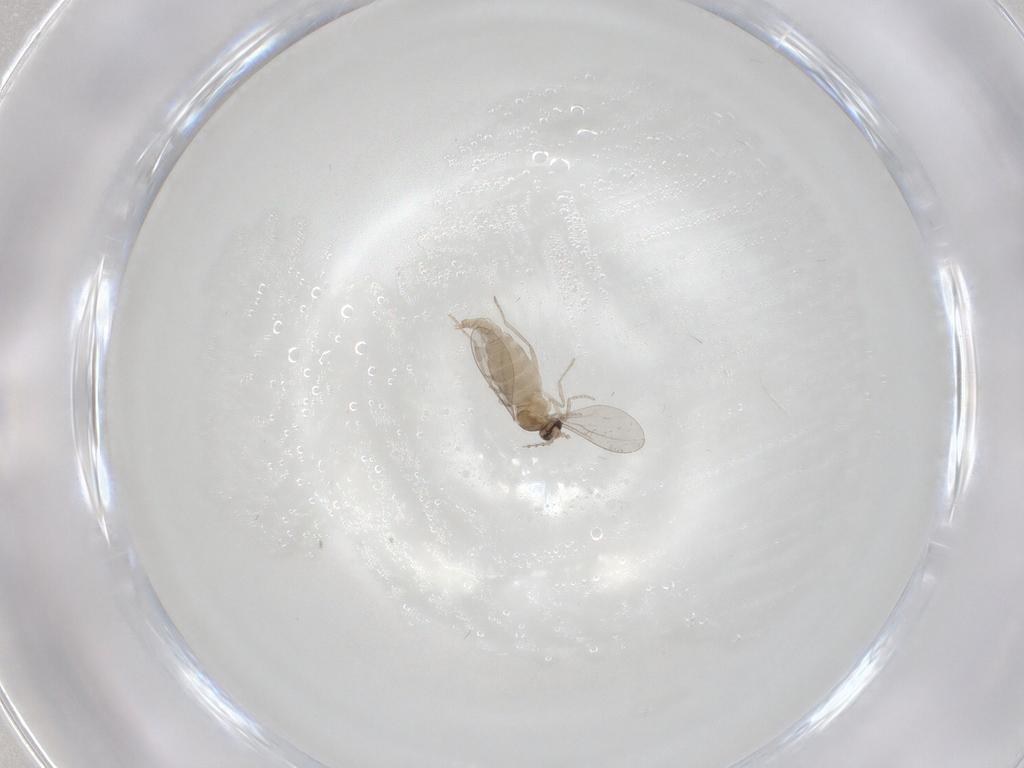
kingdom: Animalia
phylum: Arthropoda
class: Insecta
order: Diptera
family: Cecidomyiidae
